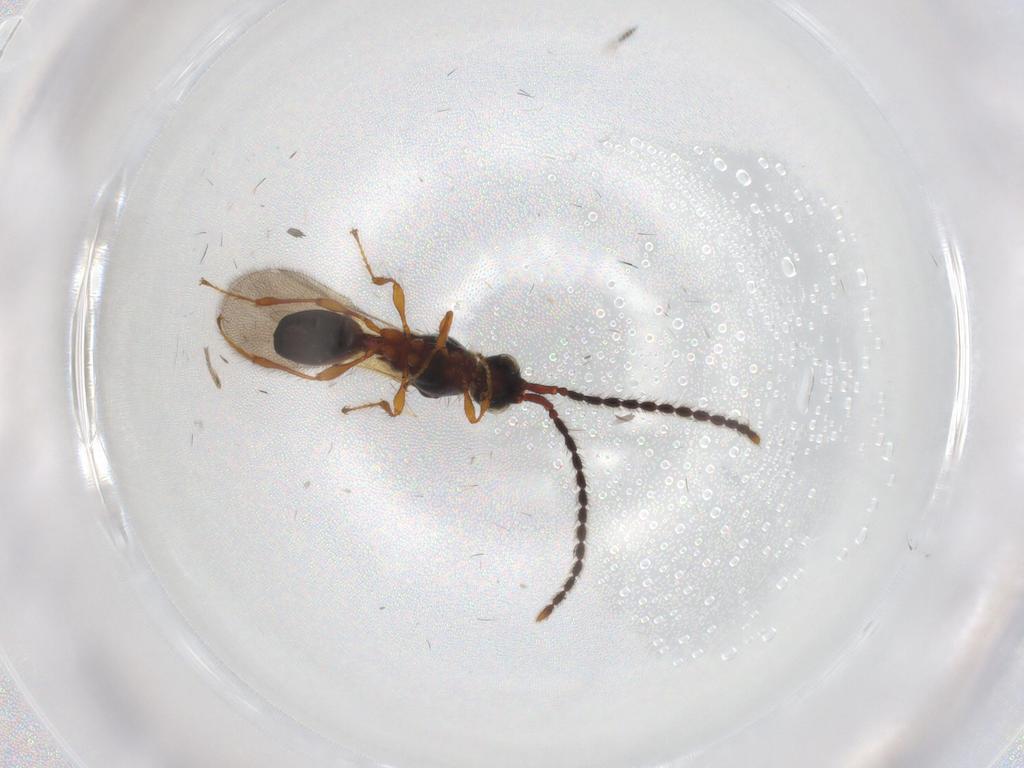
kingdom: Animalia
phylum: Arthropoda
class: Insecta
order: Hymenoptera
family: Diapriidae
